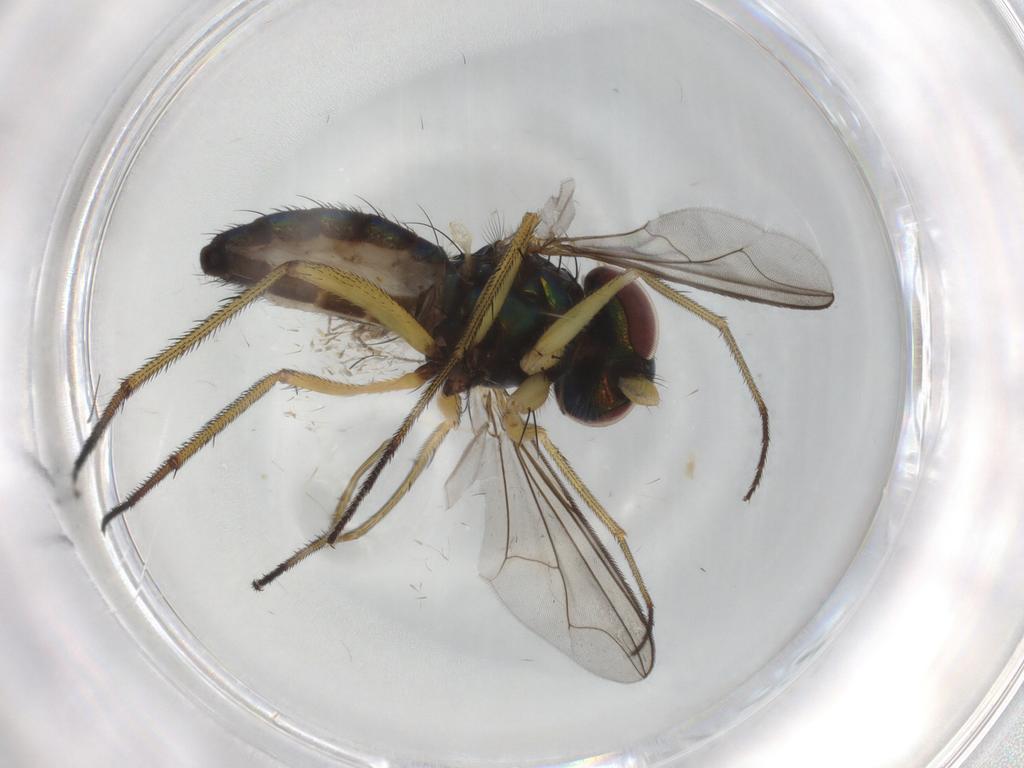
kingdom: Animalia
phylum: Arthropoda
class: Insecta
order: Diptera
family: Dolichopodidae
